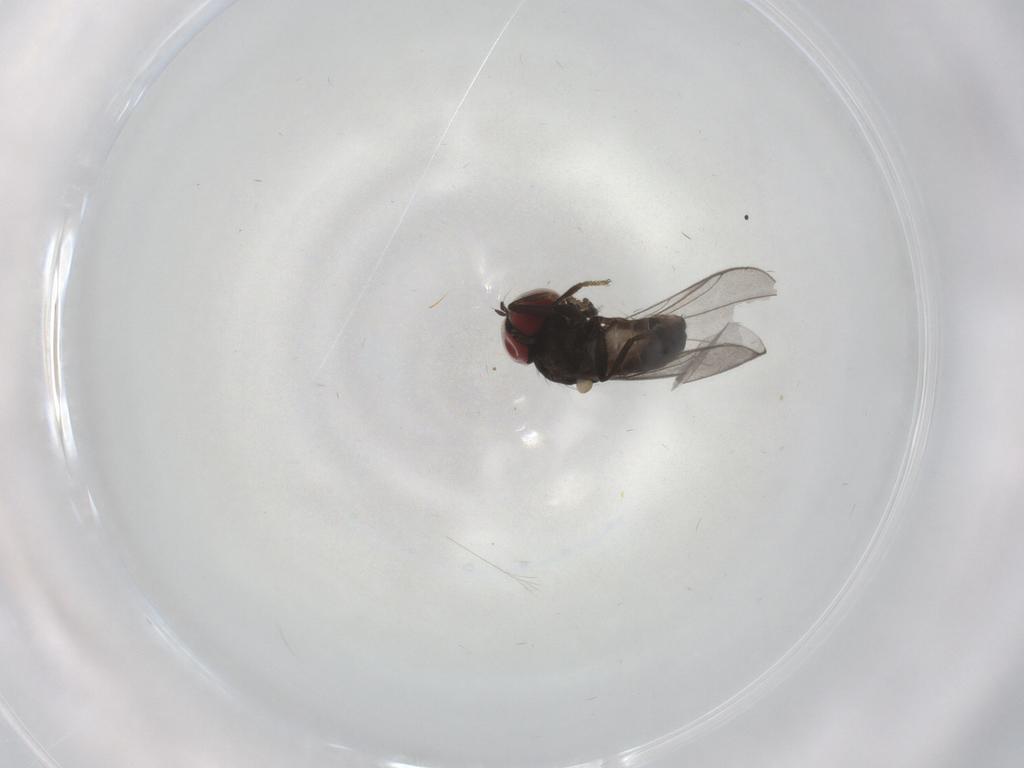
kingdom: Animalia
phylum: Arthropoda
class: Insecta
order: Diptera
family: Pipunculidae
